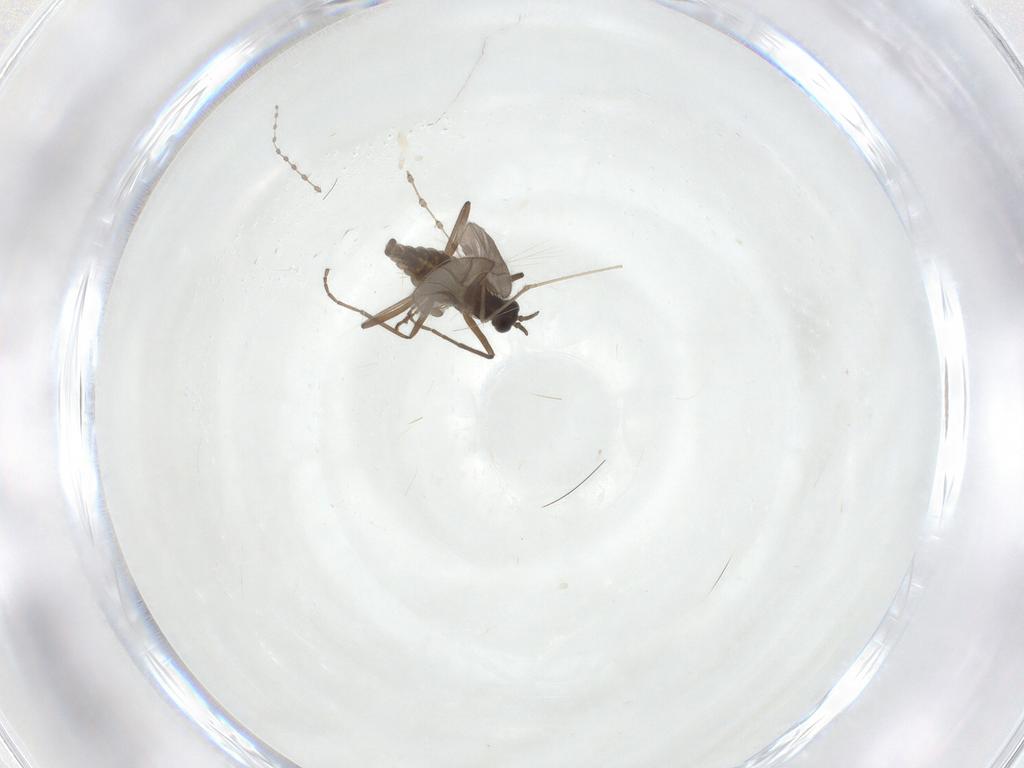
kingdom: Animalia
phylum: Arthropoda
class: Insecta
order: Diptera
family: Cecidomyiidae
